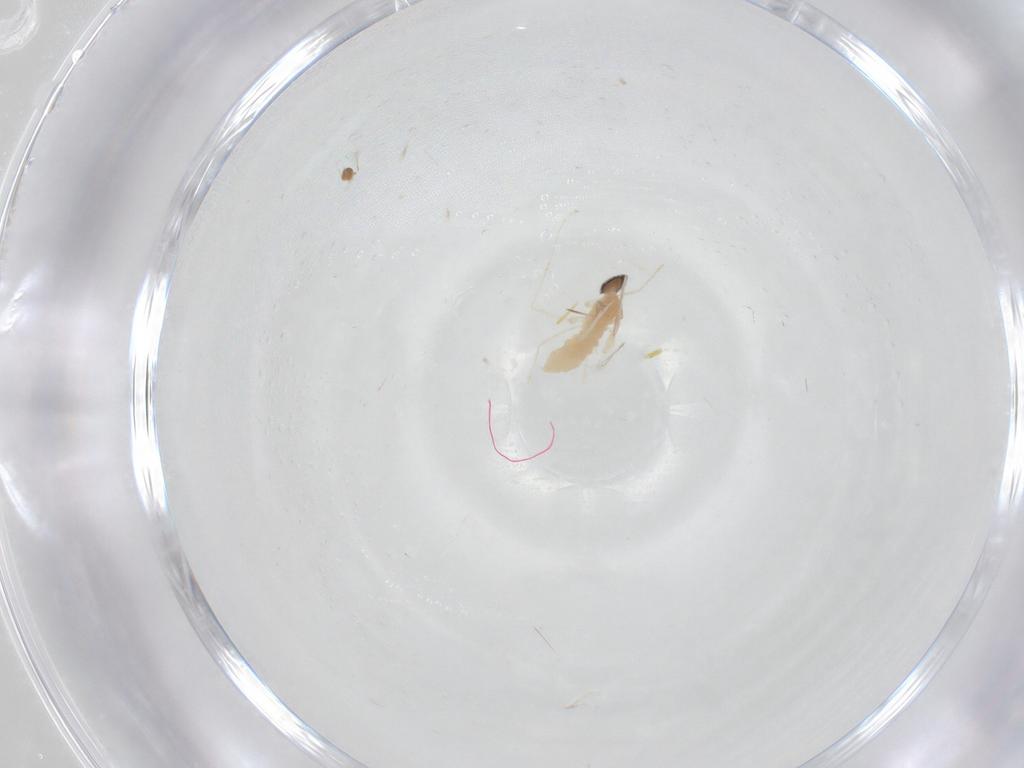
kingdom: Animalia
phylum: Arthropoda
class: Insecta
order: Diptera
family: Cecidomyiidae
